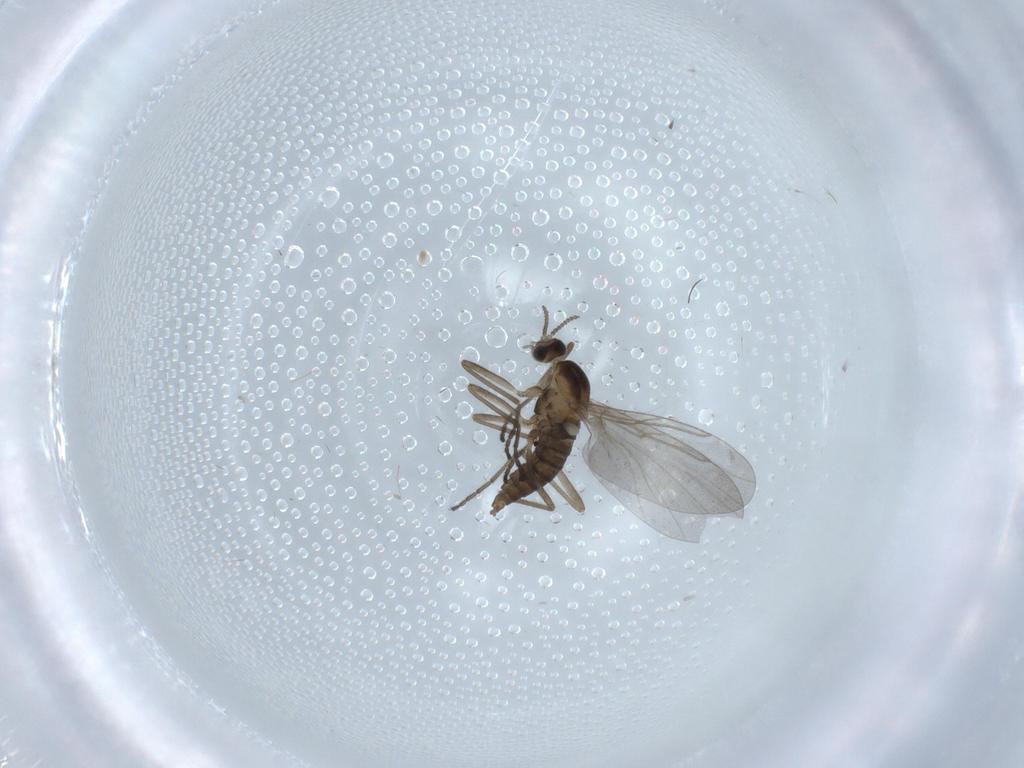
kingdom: Animalia
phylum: Arthropoda
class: Insecta
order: Diptera
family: Cecidomyiidae
